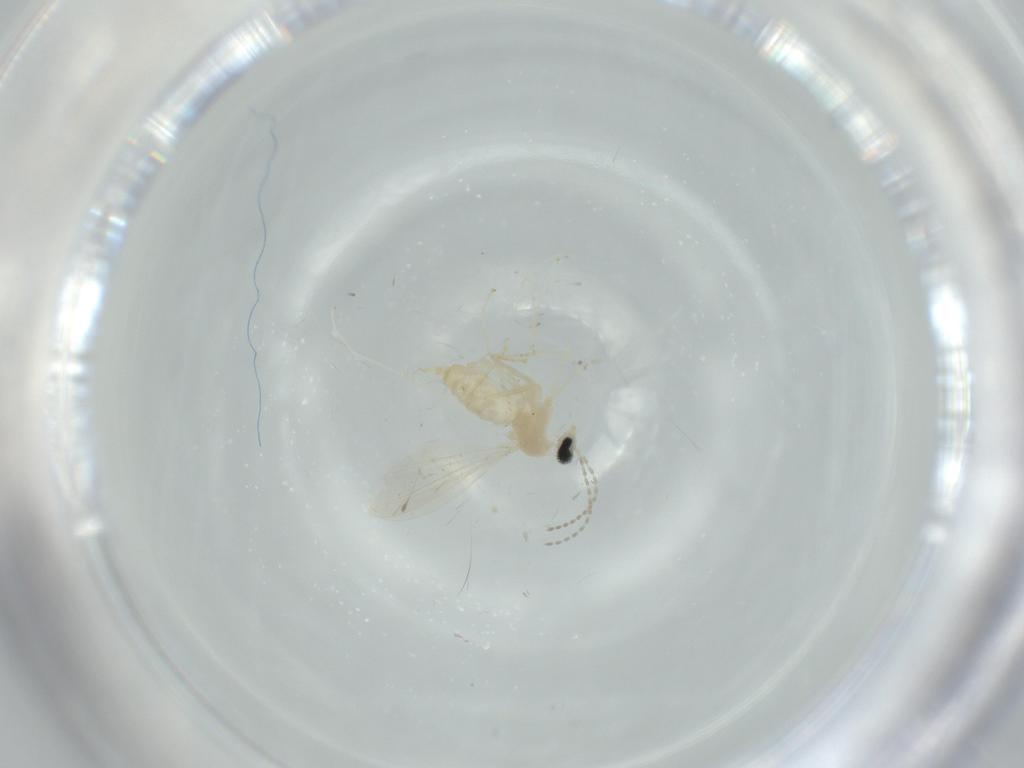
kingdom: Animalia
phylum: Arthropoda
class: Insecta
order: Diptera
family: Cecidomyiidae
